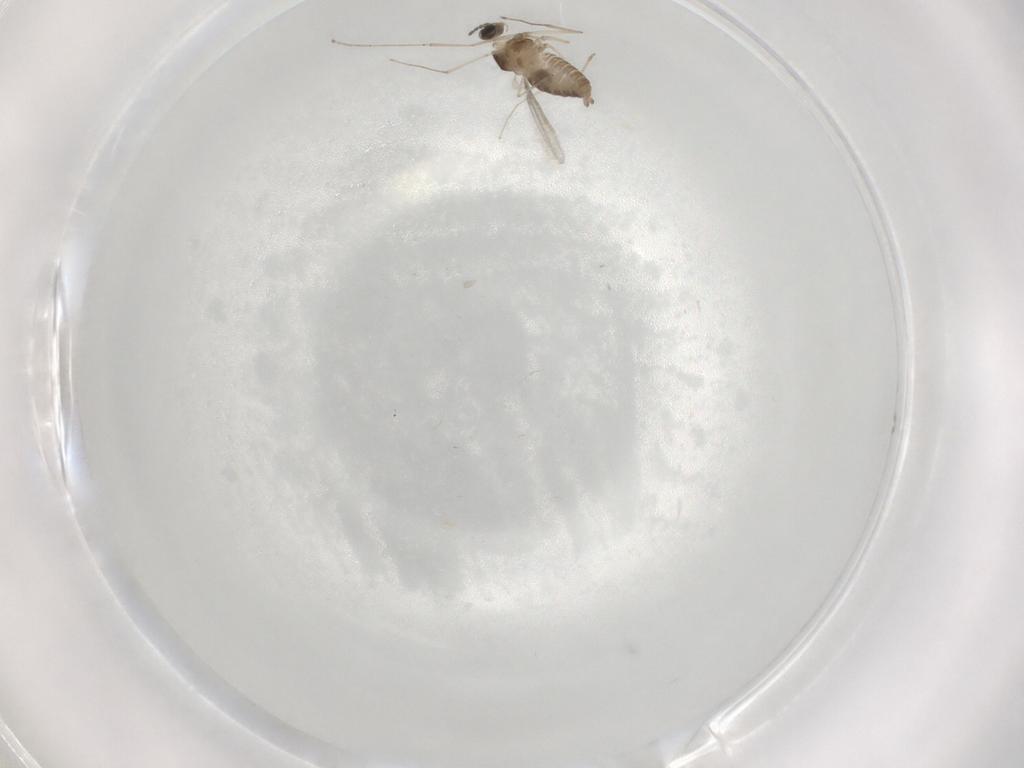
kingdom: Animalia
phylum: Arthropoda
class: Insecta
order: Diptera
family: Cecidomyiidae
